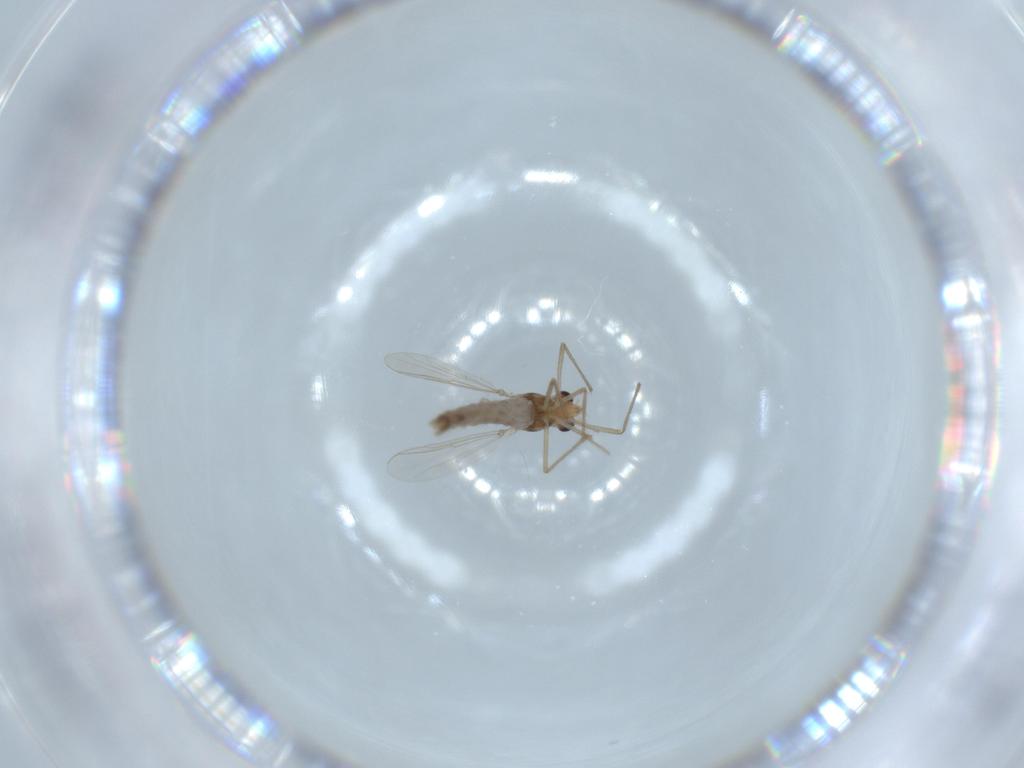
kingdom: Animalia
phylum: Arthropoda
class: Insecta
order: Diptera
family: Chironomidae
